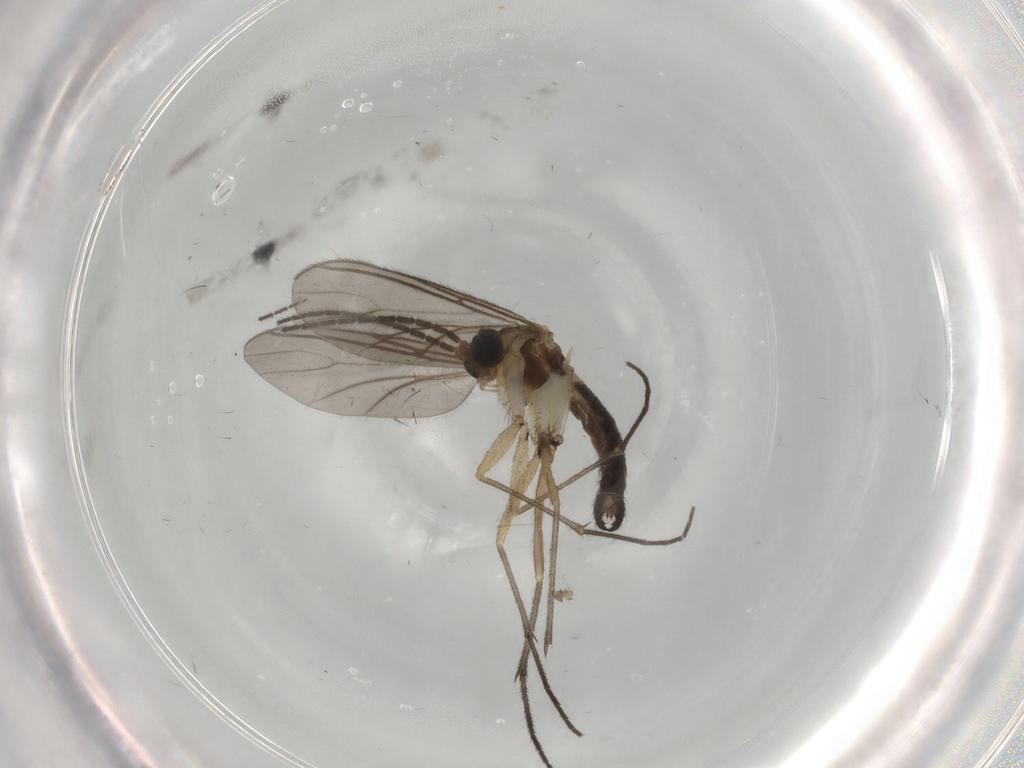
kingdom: Animalia
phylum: Arthropoda
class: Insecta
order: Diptera
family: Sciaridae
